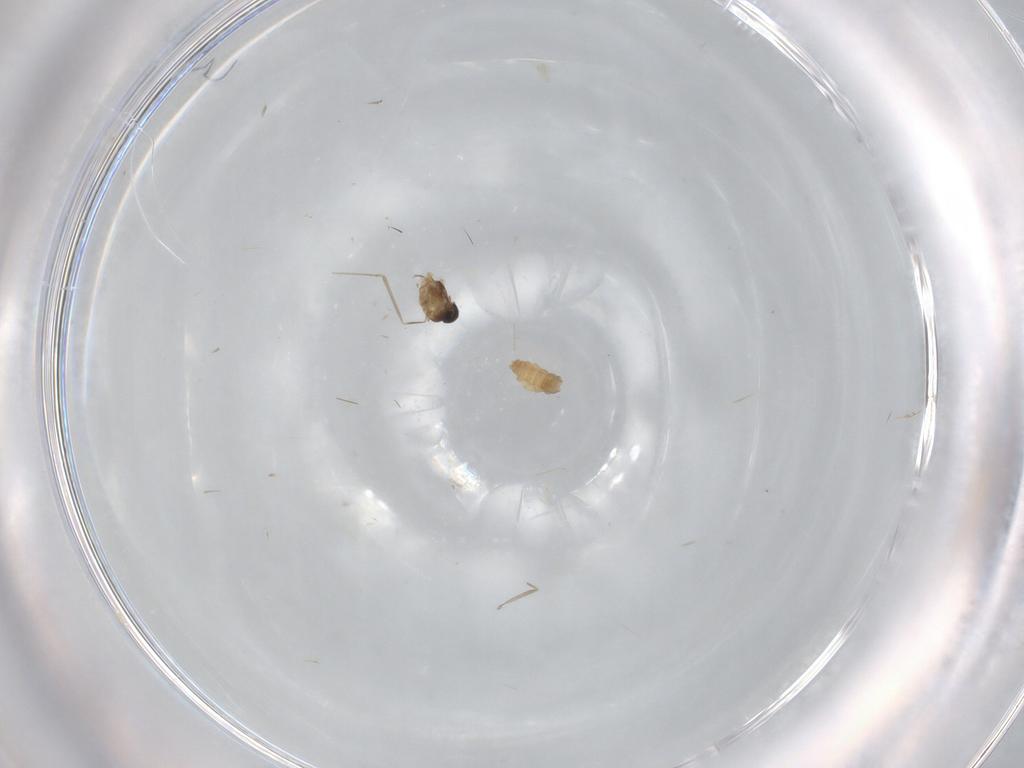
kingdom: Animalia
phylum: Arthropoda
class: Insecta
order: Diptera
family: Cecidomyiidae
